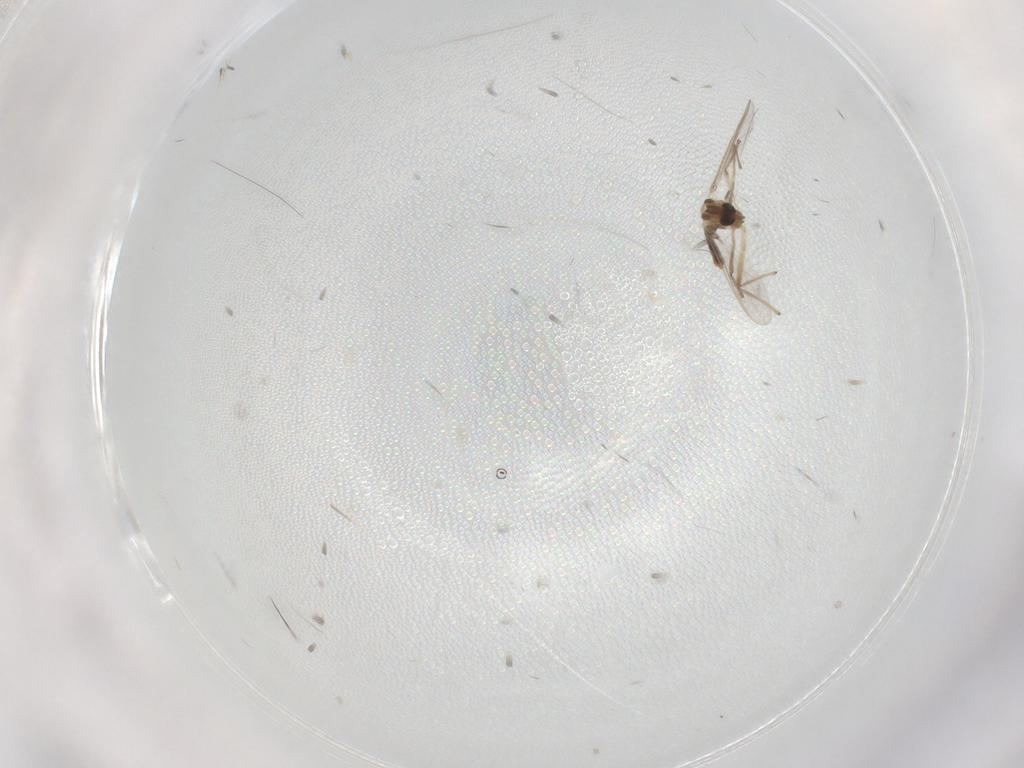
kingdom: Animalia
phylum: Arthropoda
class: Insecta
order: Diptera
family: Chironomidae
